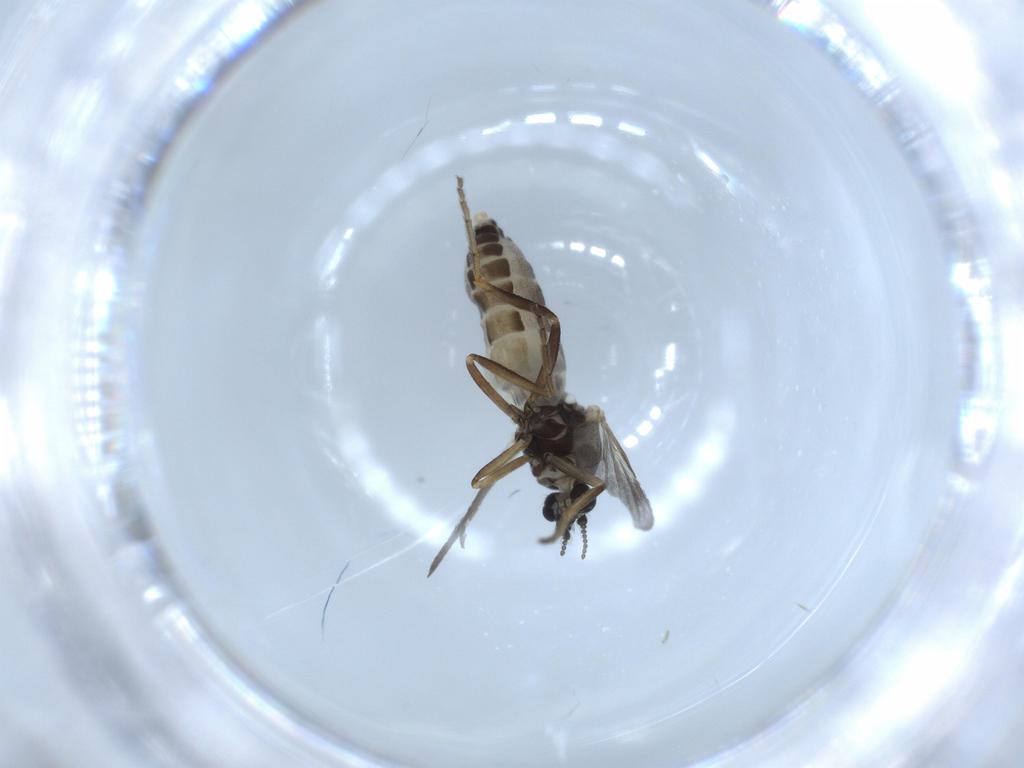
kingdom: Animalia
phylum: Arthropoda
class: Insecta
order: Diptera
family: Ceratopogonidae
